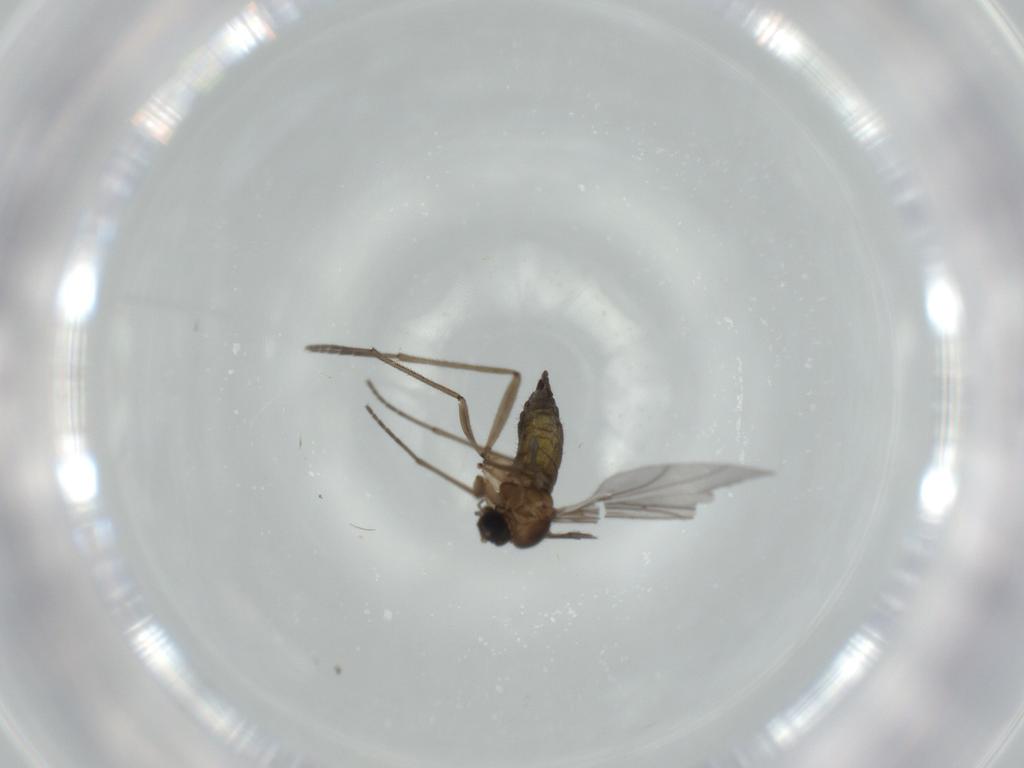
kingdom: Animalia
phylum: Arthropoda
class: Insecta
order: Diptera
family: Sciaridae
